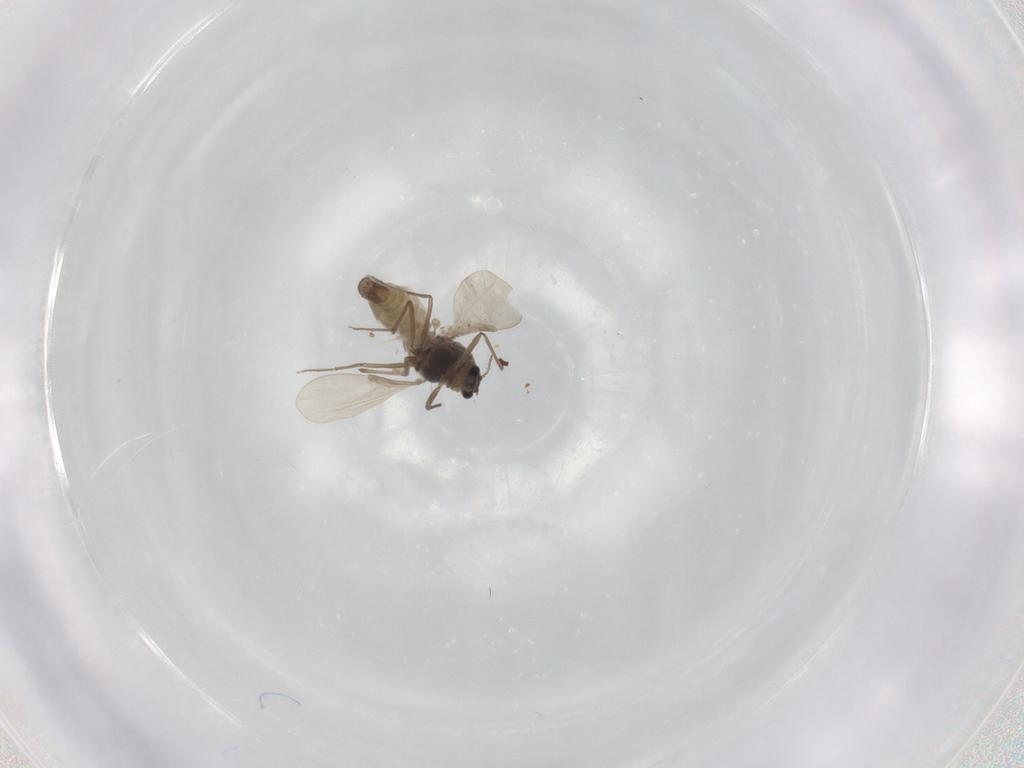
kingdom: Animalia
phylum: Arthropoda
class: Insecta
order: Diptera
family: Chironomidae
